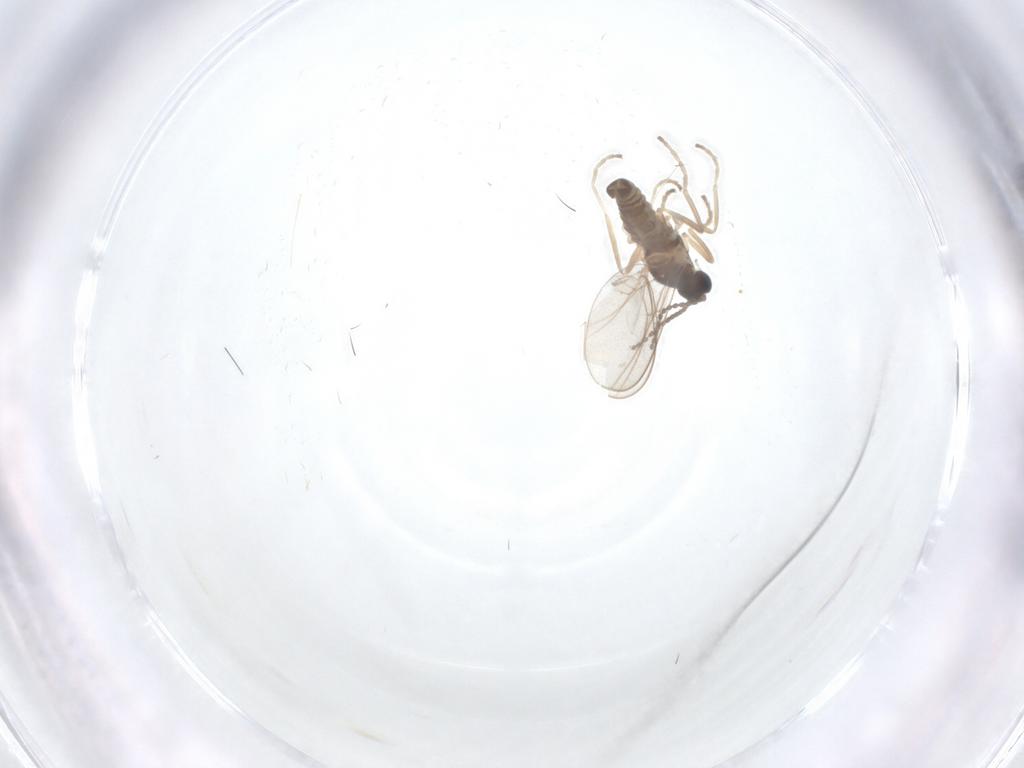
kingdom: Animalia
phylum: Arthropoda
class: Insecta
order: Diptera
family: Cecidomyiidae
